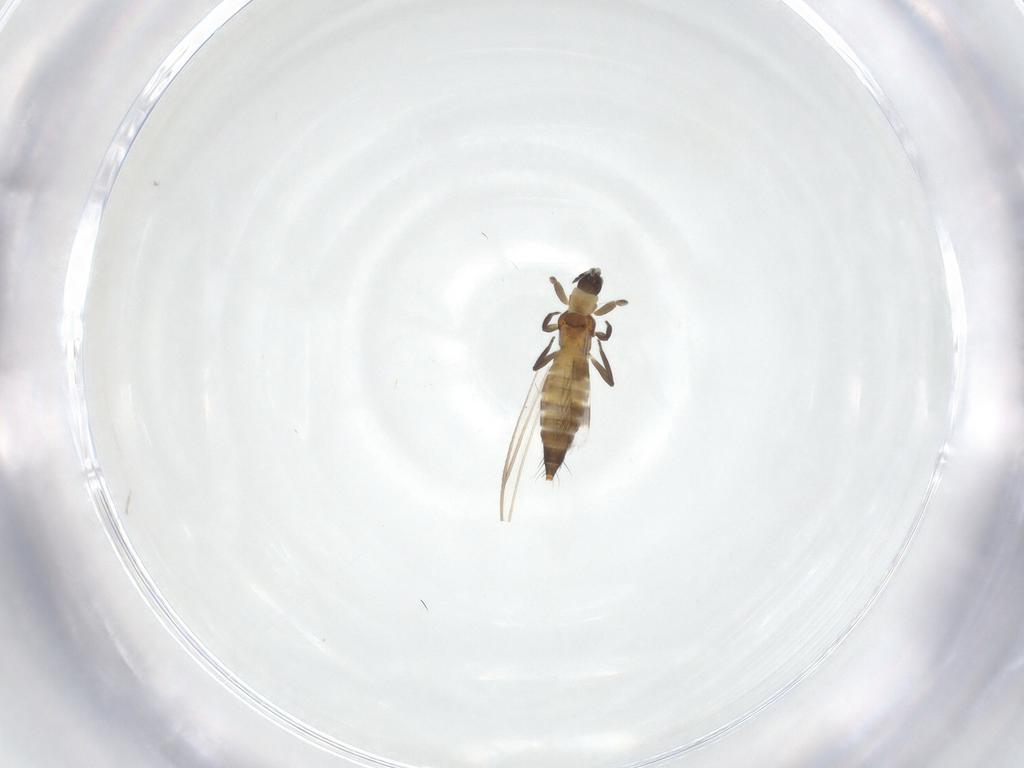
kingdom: Animalia
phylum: Arthropoda
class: Insecta
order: Thysanoptera
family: Aeolothripidae
